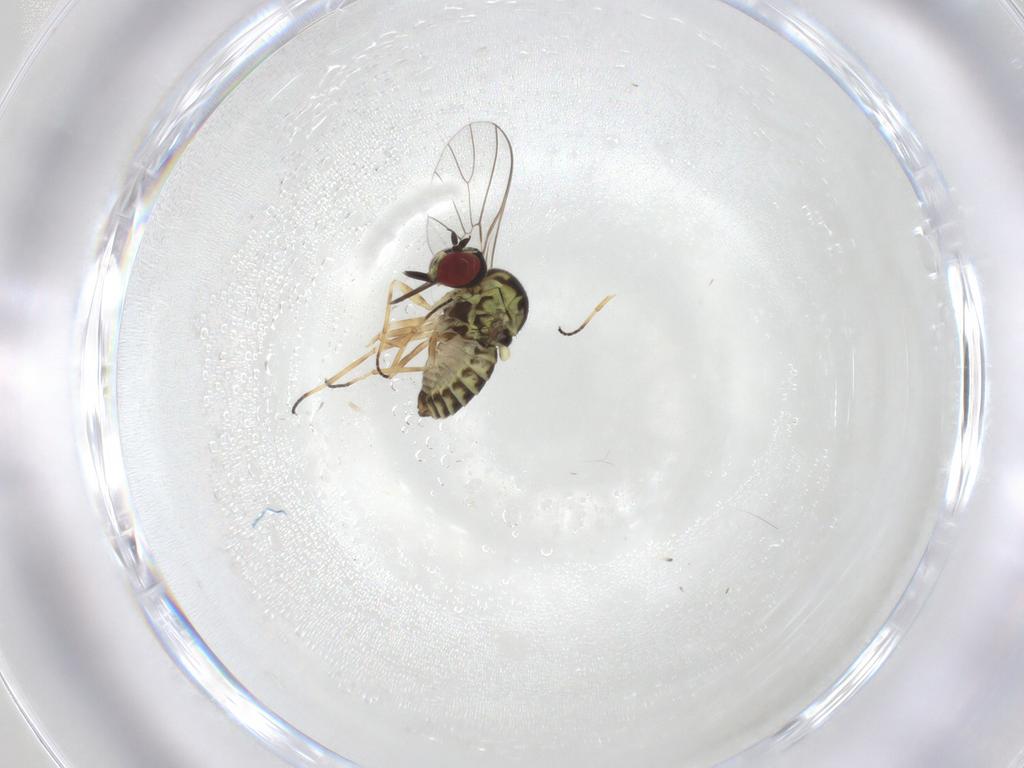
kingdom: Animalia
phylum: Arthropoda
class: Insecta
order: Diptera
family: Bombyliidae
